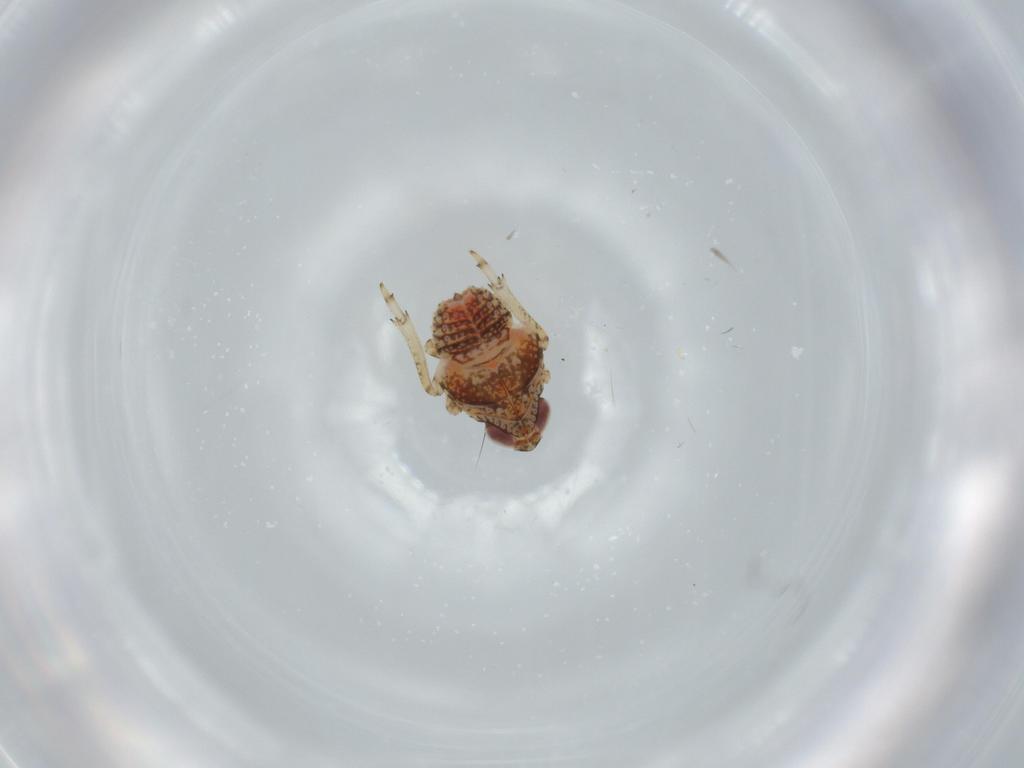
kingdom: Animalia
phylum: Arthropoda
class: Insecta
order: Hemiptera
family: Issidae
